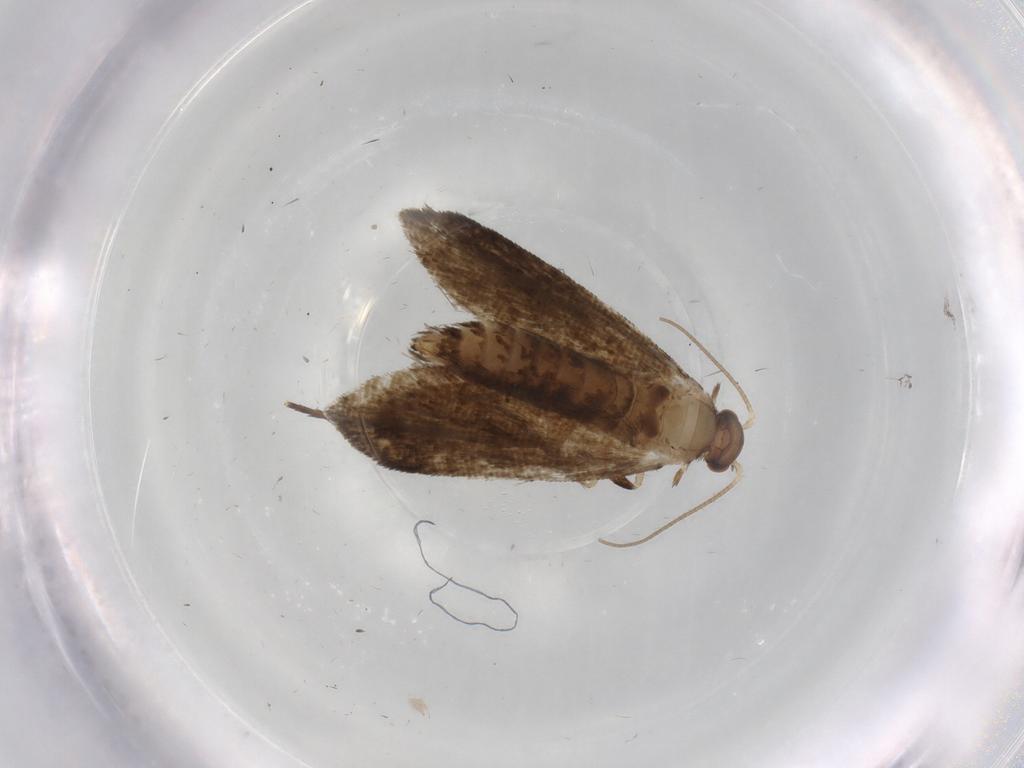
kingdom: Animalia
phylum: Arthropoda
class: Insecta
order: Lepidoptera
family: Crambidae
